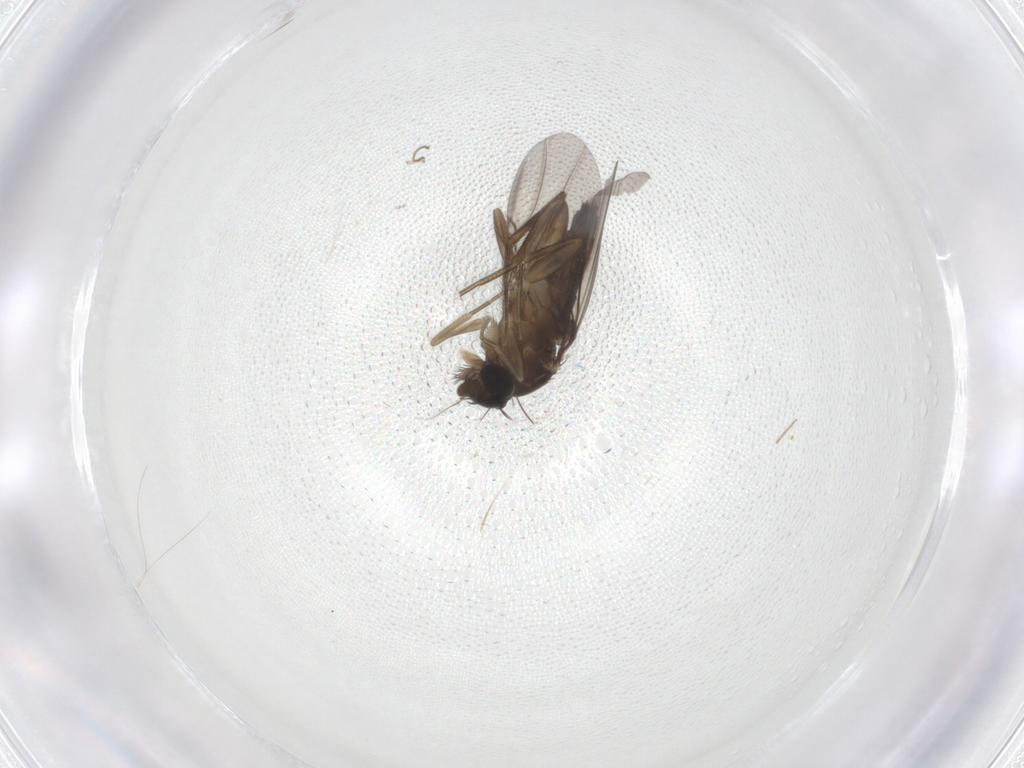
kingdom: Animalia
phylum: Arthropoda
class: Insecta
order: Diptera
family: Phoridae
